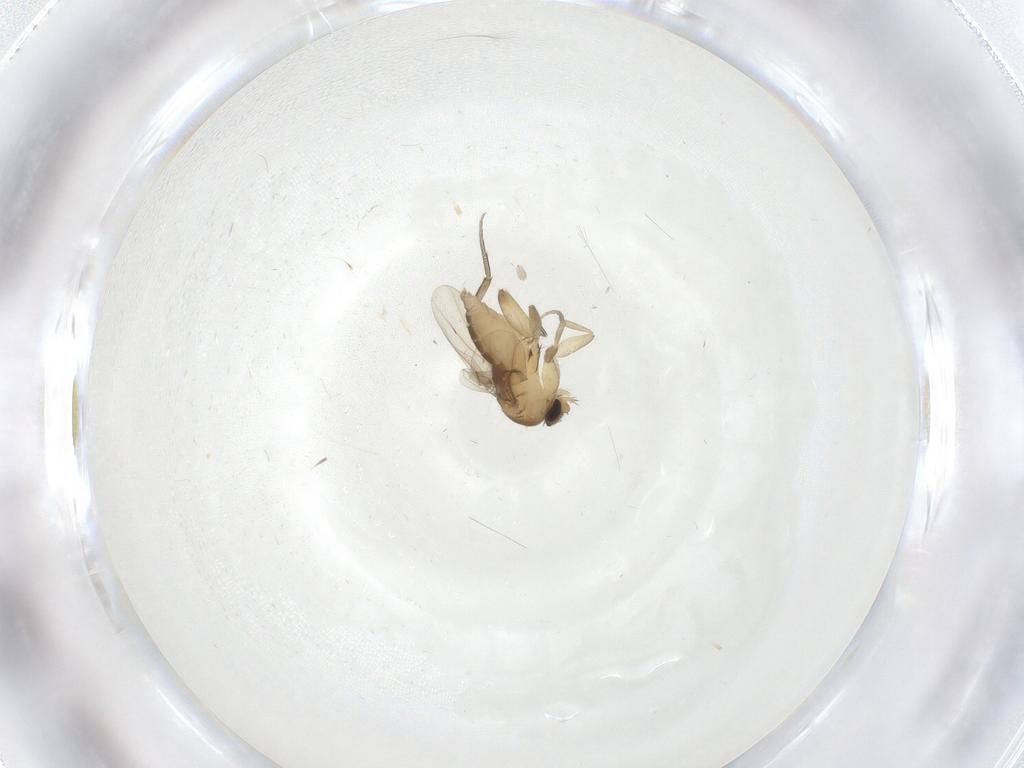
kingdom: Animalia
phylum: Arthropoda
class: Insecta
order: Diptera
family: Phoridae
